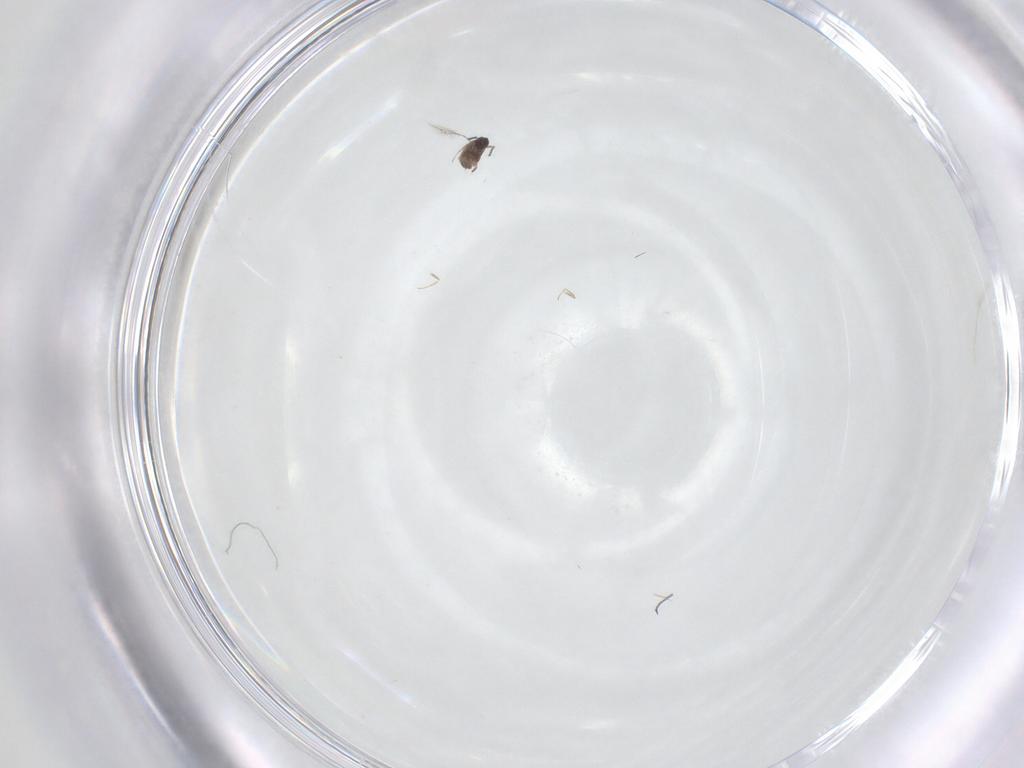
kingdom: Animalia
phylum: Arthropoda
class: Insecta
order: Hymenoptera
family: Mymaridae
